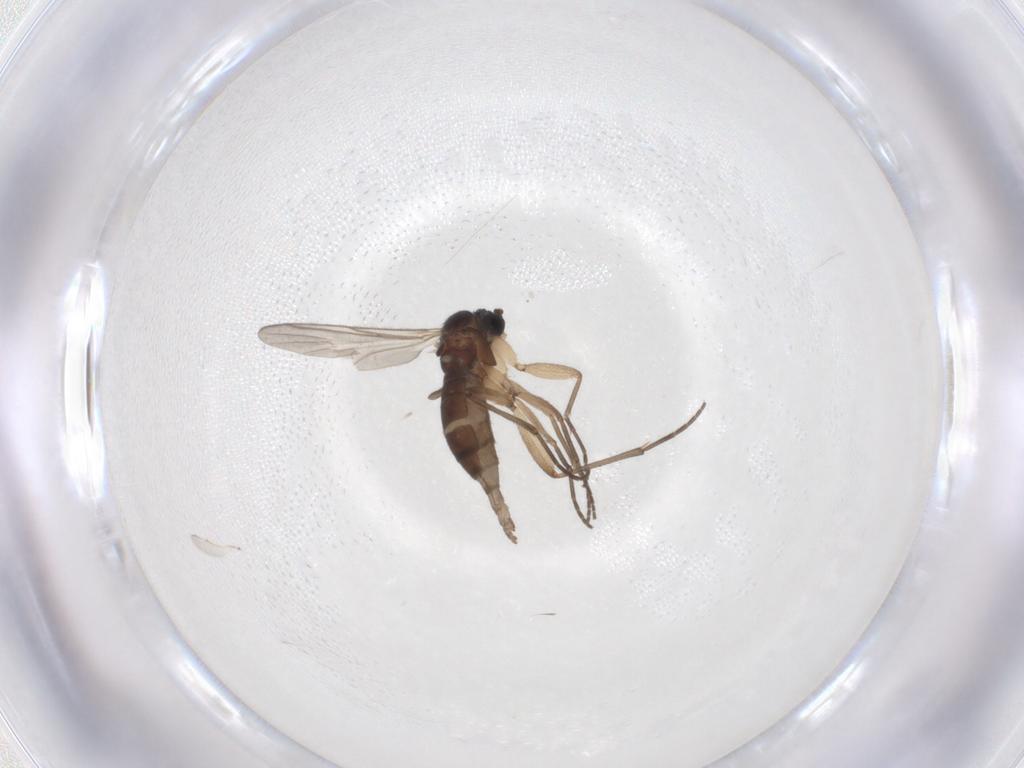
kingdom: Animalia
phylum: Arthropoda
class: Insecta
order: Diptera
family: Sciaridae
